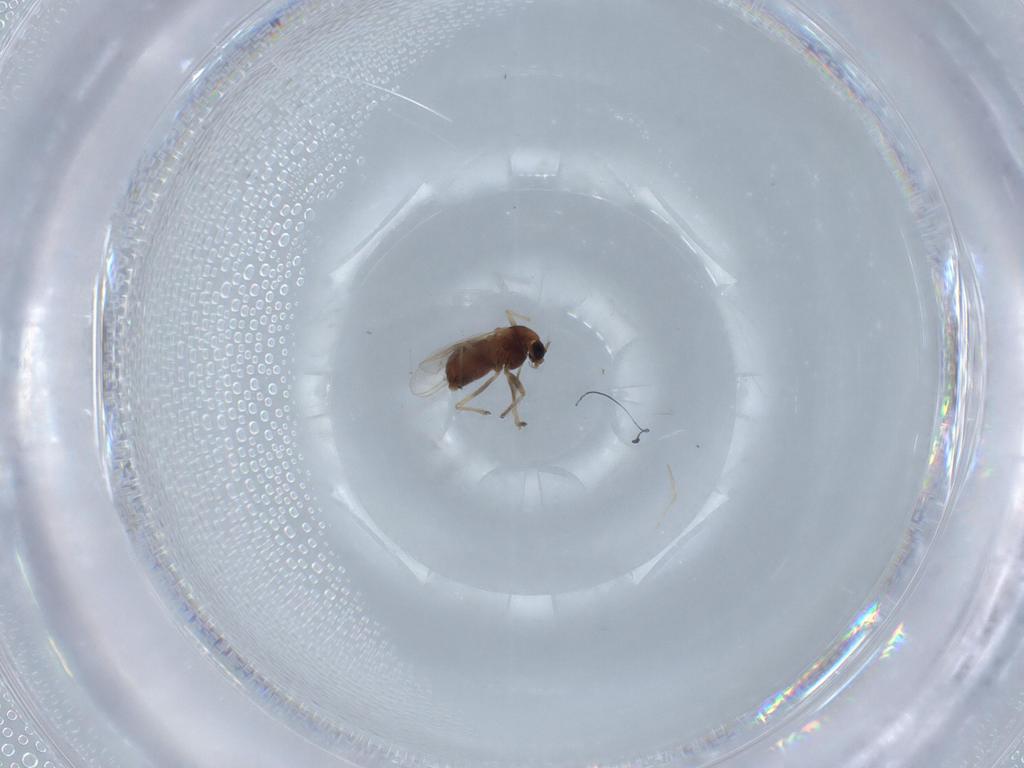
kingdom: Animalia
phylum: Arthropoda
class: Insecta
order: Diptera
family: Chironomidae
